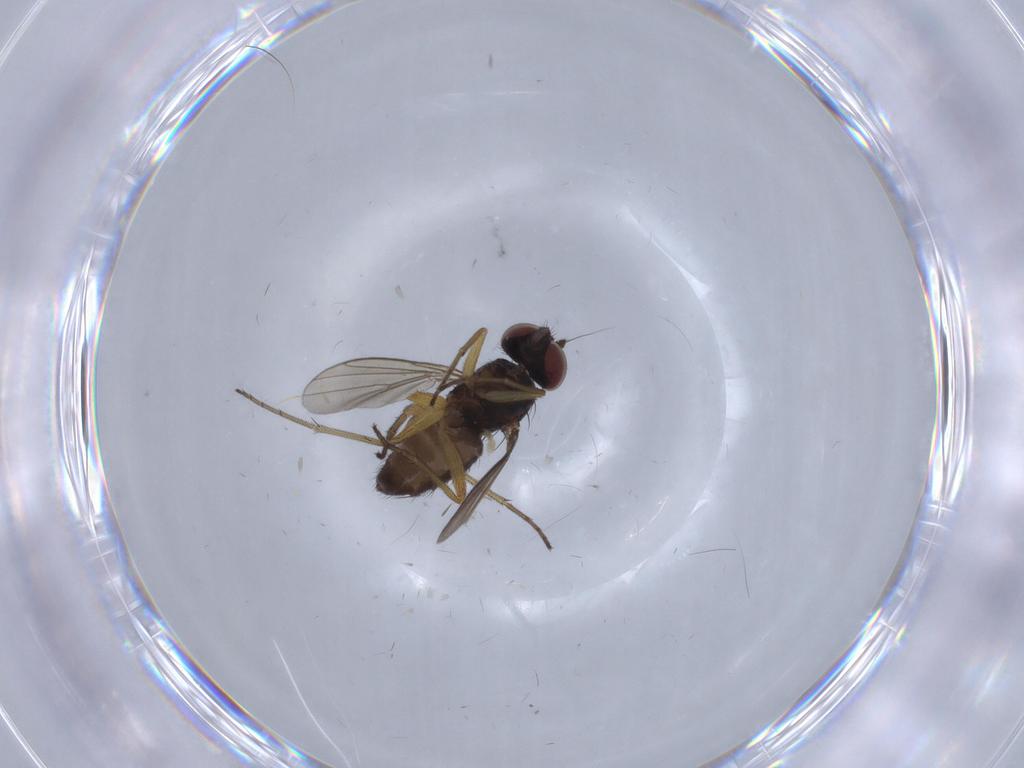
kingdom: Animalia
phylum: Arthropoda
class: Insecta
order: Diptera
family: Dolichopodidae
